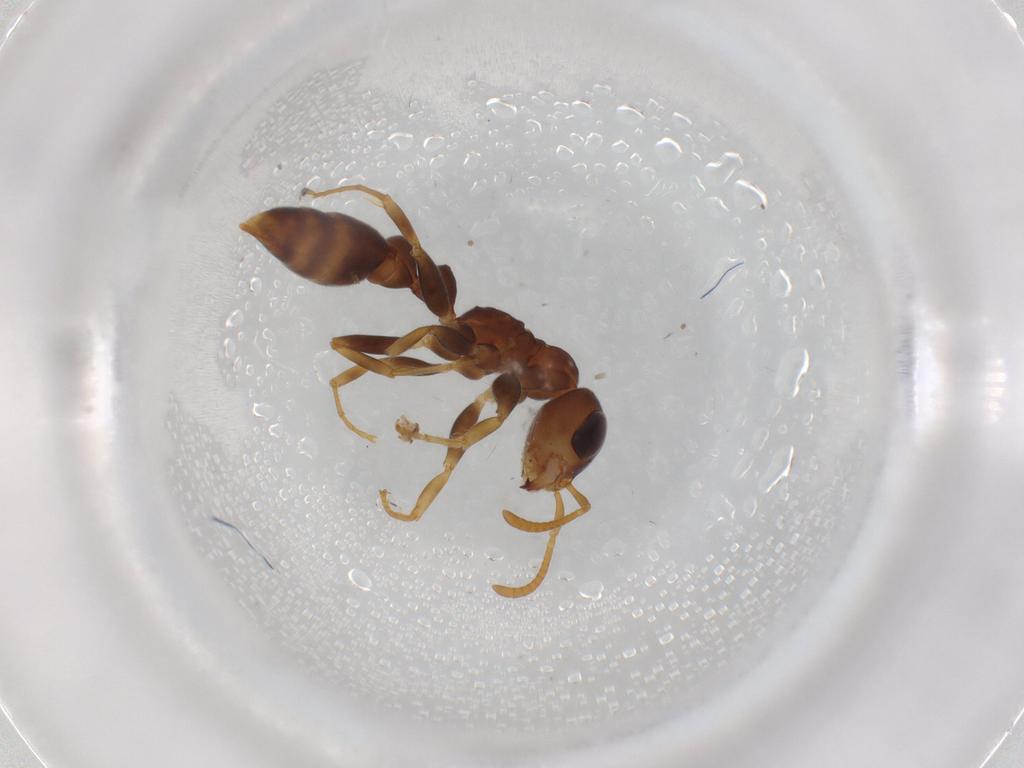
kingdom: Animalia
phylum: Arthropoda
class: Insecta
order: Hymenoptera
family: Formicidae
